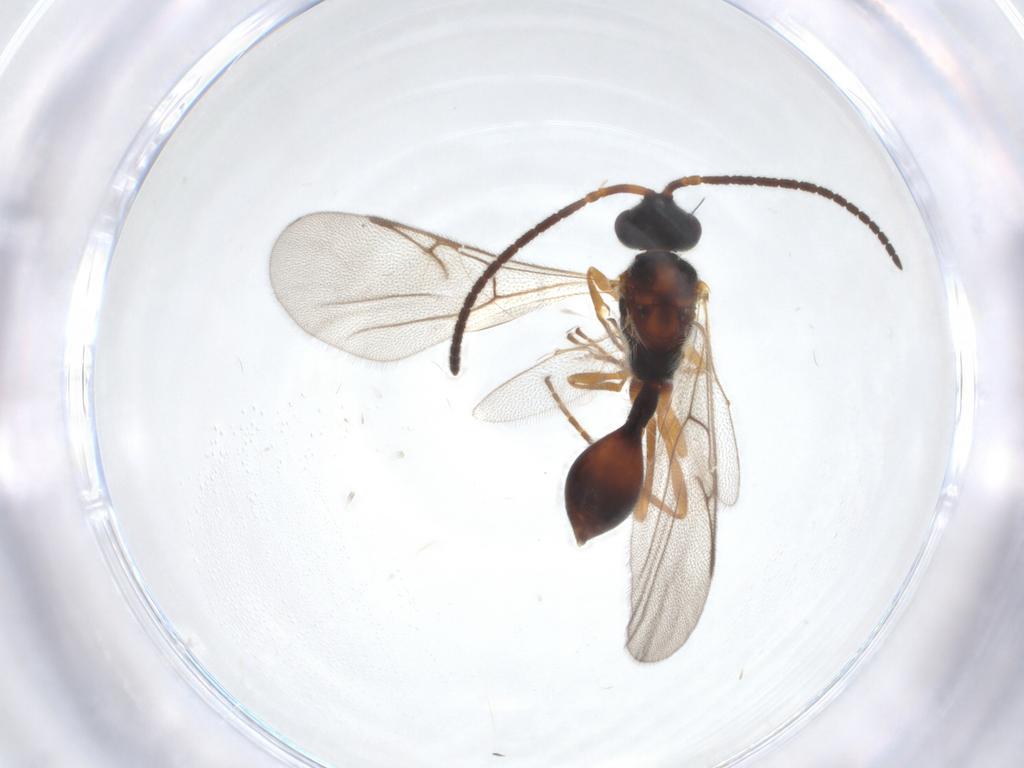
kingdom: Animalia
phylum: Arthropoda
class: Insecta
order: Hymenoptera
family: Diapriidae
